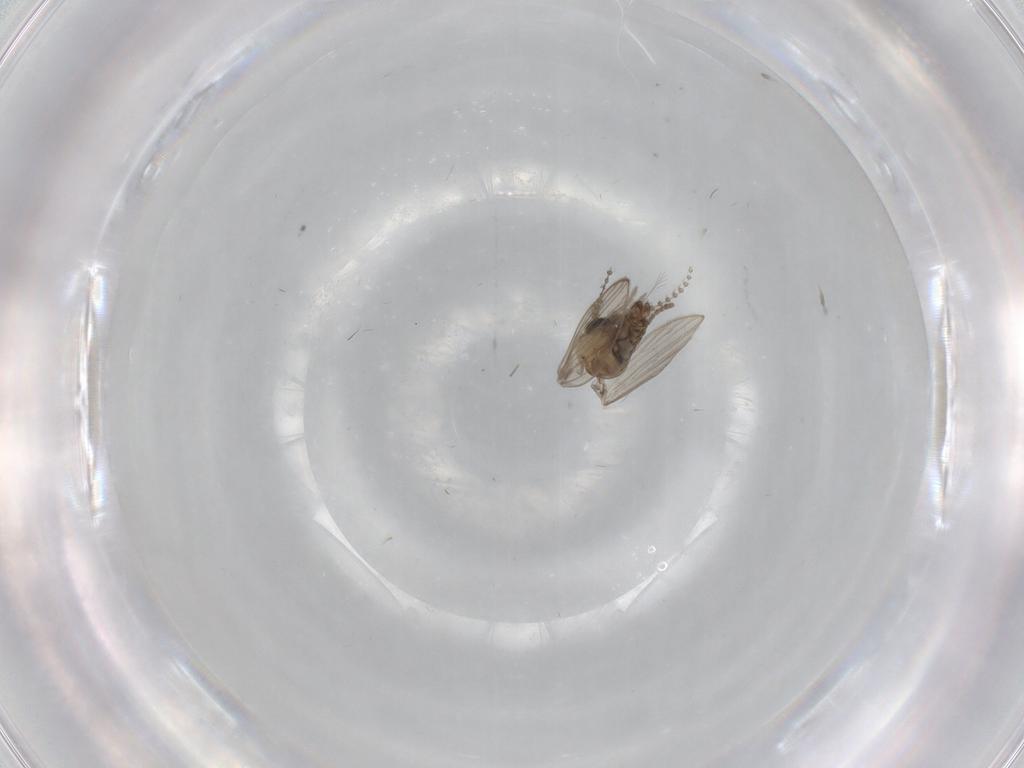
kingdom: Animalia
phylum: Arthropoda
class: Insecta
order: Diptera
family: Psychodidae
